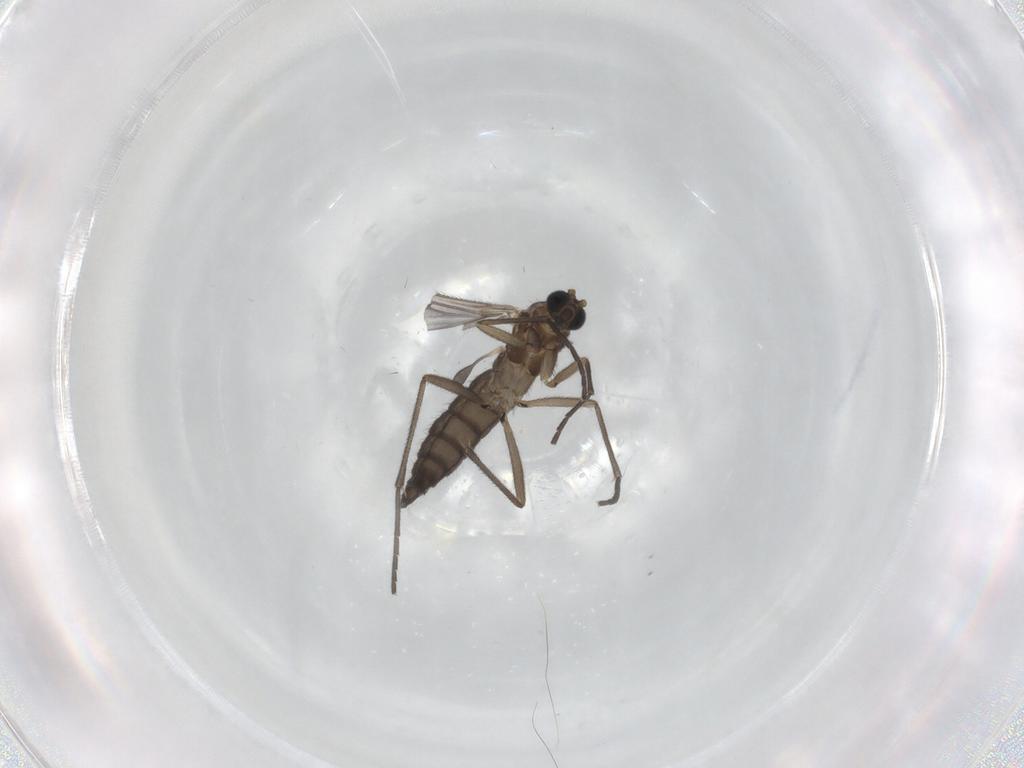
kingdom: Animalia
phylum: Arthropoda
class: Insecta
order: Diptera
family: Sciaridae
